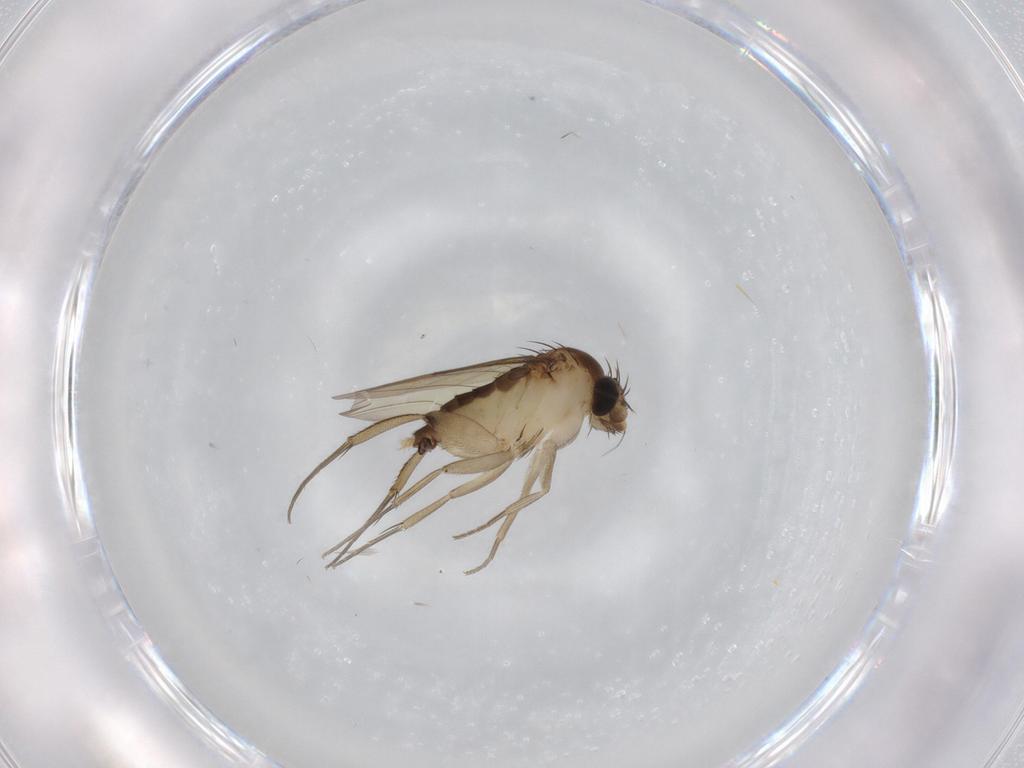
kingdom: Animalia
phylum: Arthropoda
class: Insecta
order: Diptera
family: Phoridae
